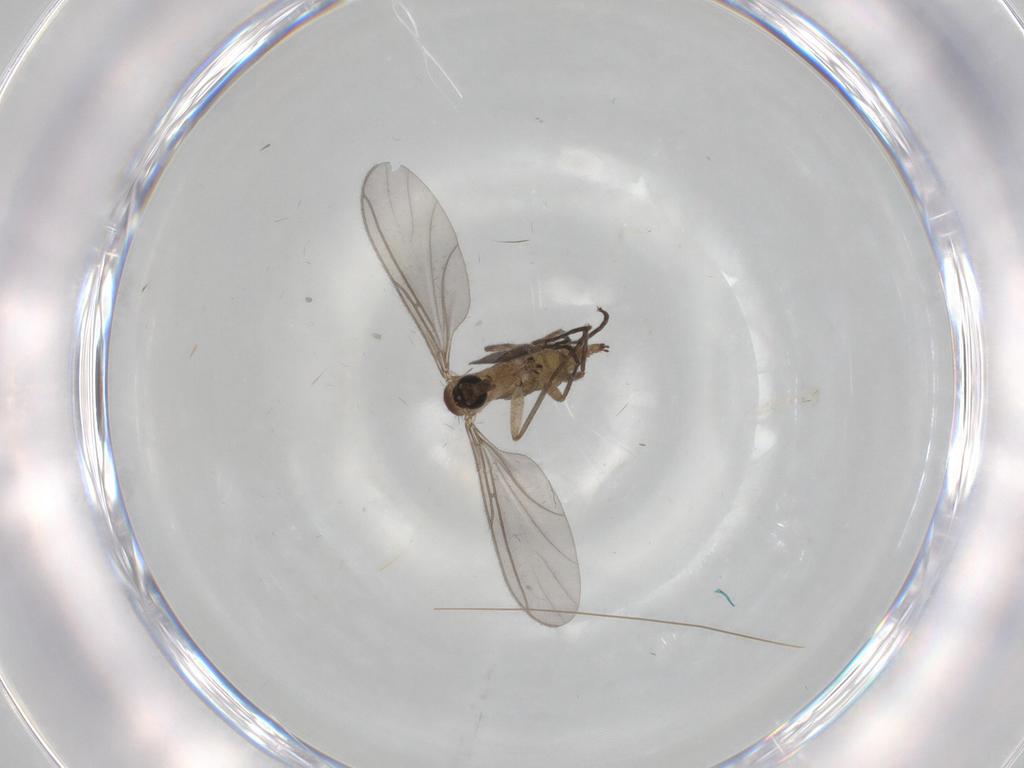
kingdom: Animalia
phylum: Arthropoda
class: Insecta
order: Diptera
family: Sciaridae
